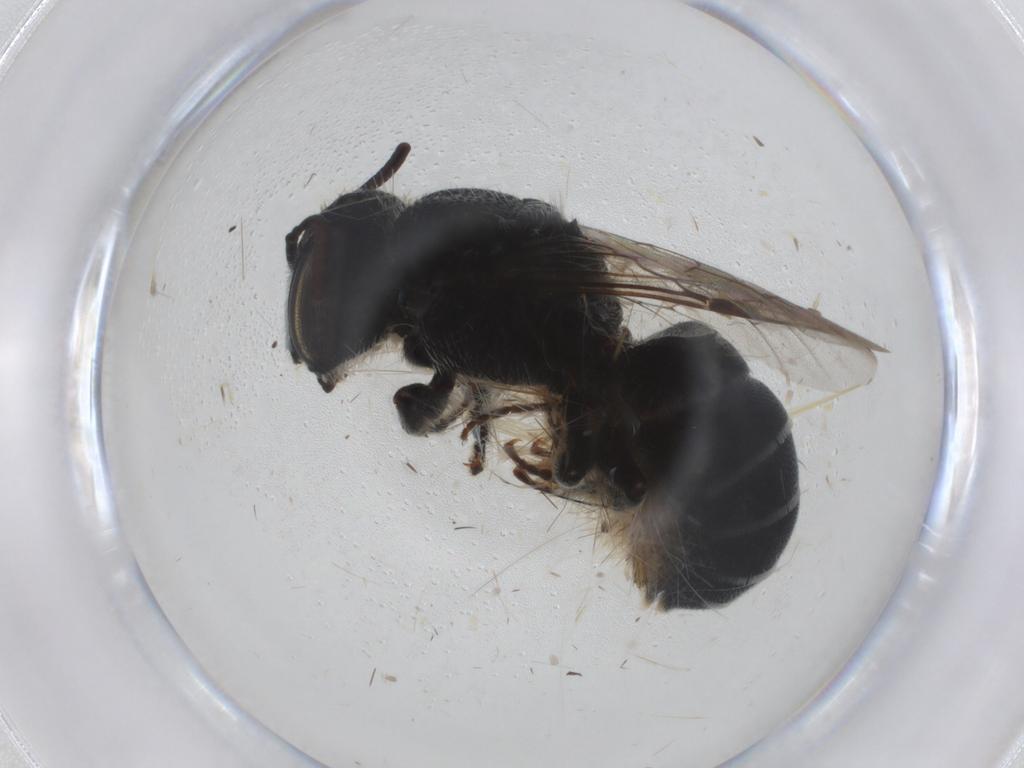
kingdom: Animalia
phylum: Arthropoda
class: Insecta
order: Hymenoptera
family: Megachilidae
